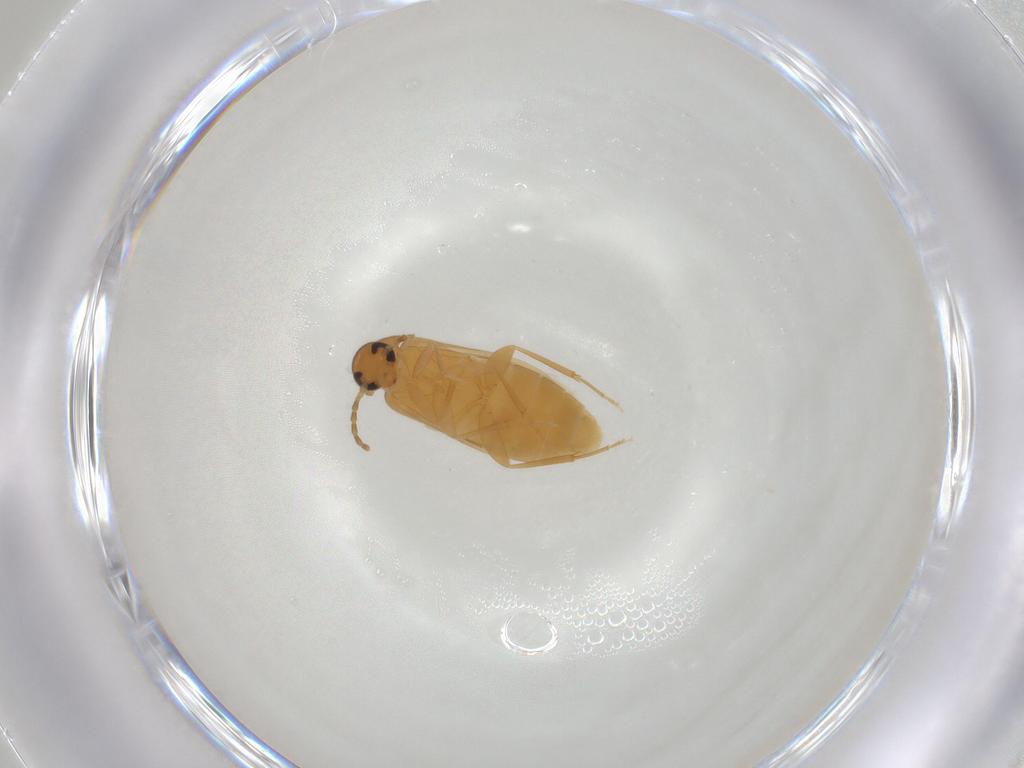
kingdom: Animalia
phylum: Arthropoda
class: Insecta
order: Coleoptera
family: Scraptiidae
